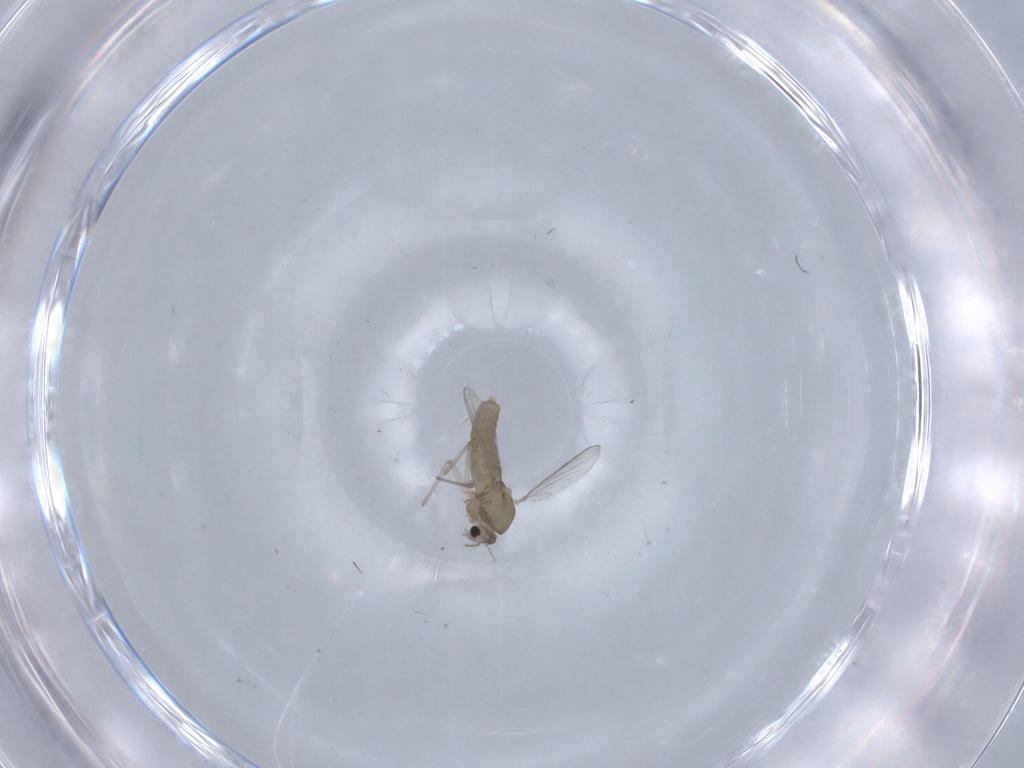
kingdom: Animalia
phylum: Arthropoda
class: Insecta
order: Diptera
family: Chironomidae
